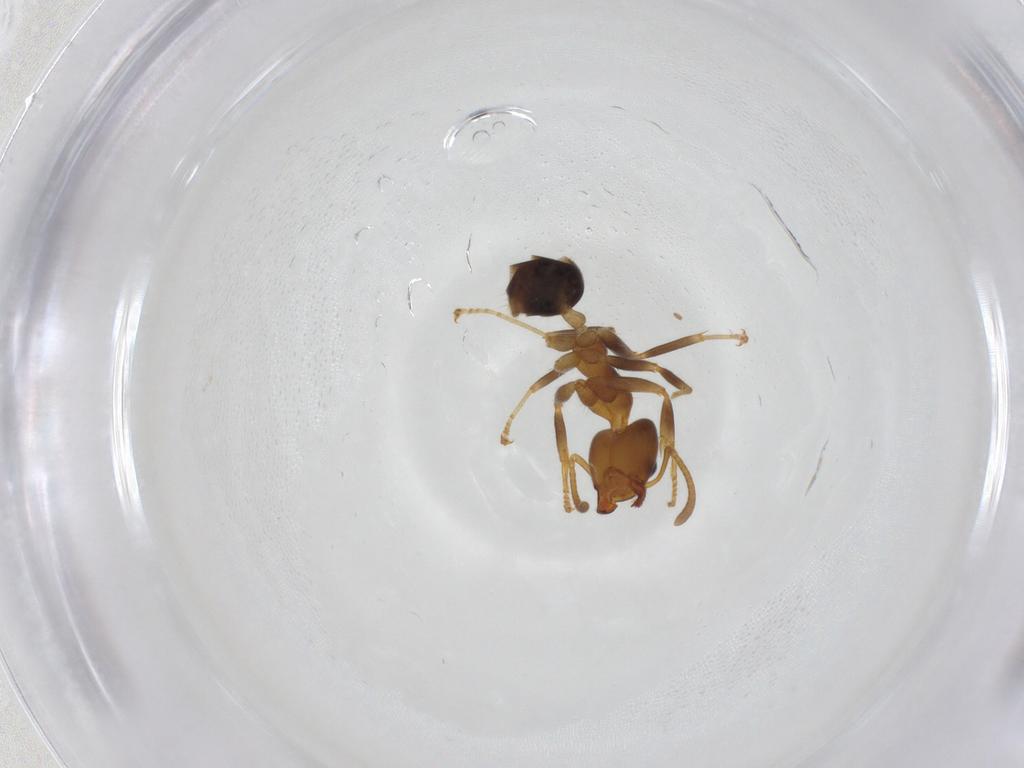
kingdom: Animalia
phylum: Arthropoda
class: Insecta
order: Hymenoptera
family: Formicidae
